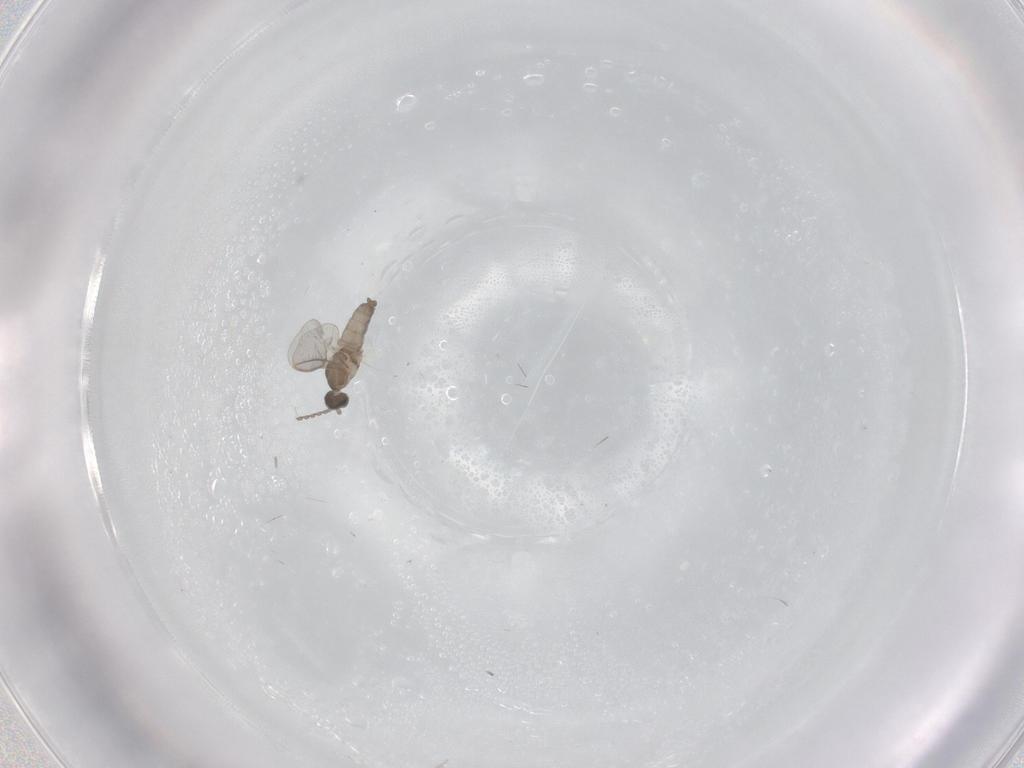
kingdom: Animalia
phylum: Arthropoda
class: Insecta
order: Diptera
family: Cecidomyiidae
